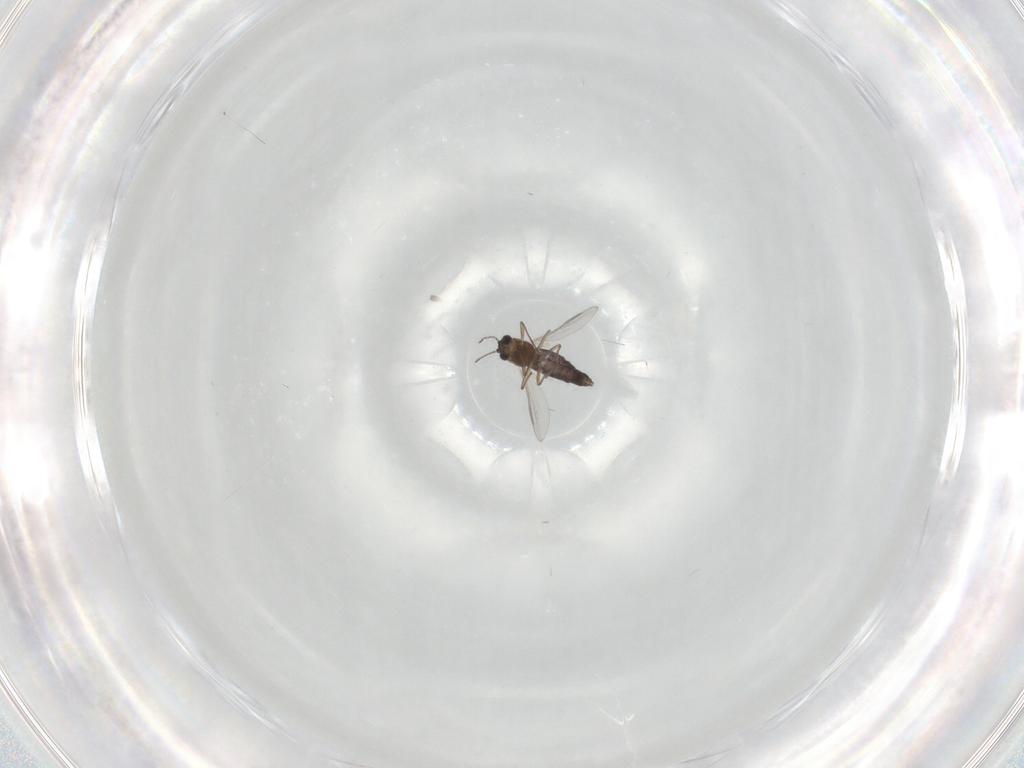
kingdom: Animalia
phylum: Arthropoda
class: Insecta
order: Diptera
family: Chironomidae
